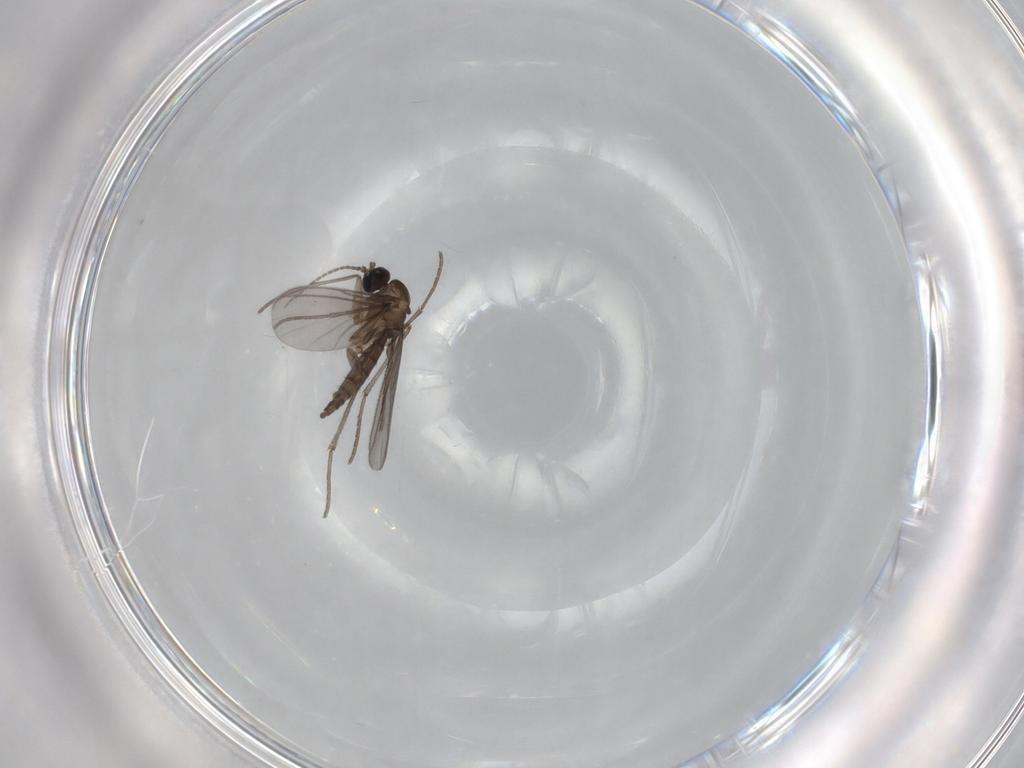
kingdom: Animalia
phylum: Arthropoda
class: Insecta
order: Diptera
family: Sciaridae
